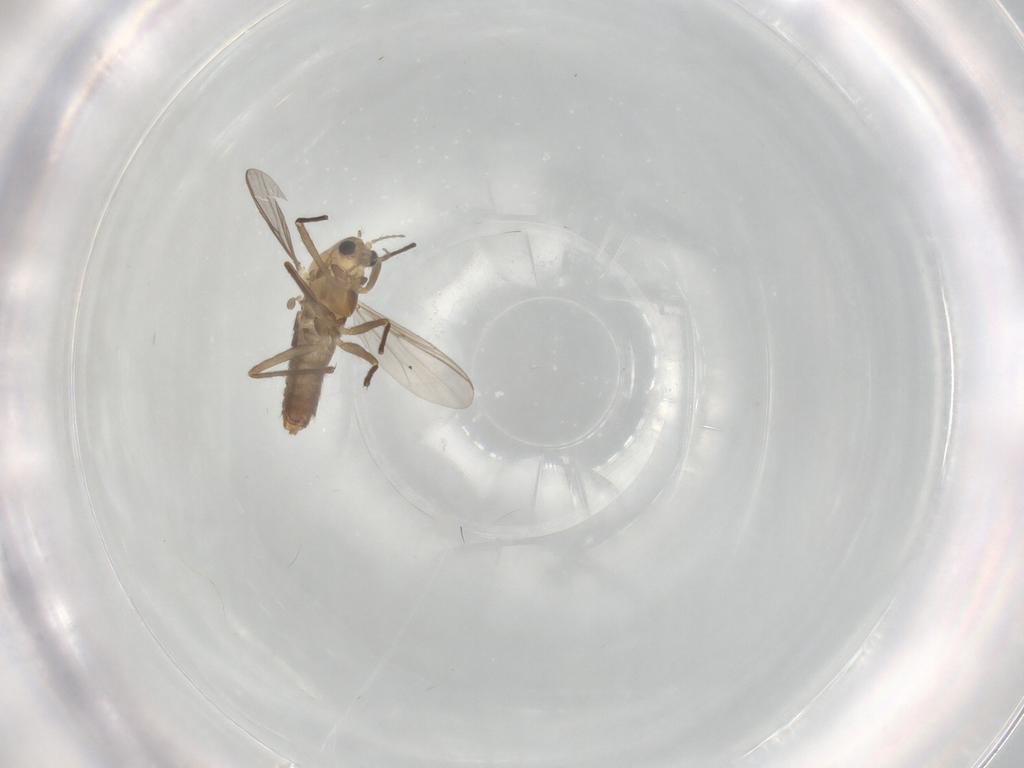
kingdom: Animalia
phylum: Arthropoda
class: Insecta
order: Diptera
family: Chironomidae
